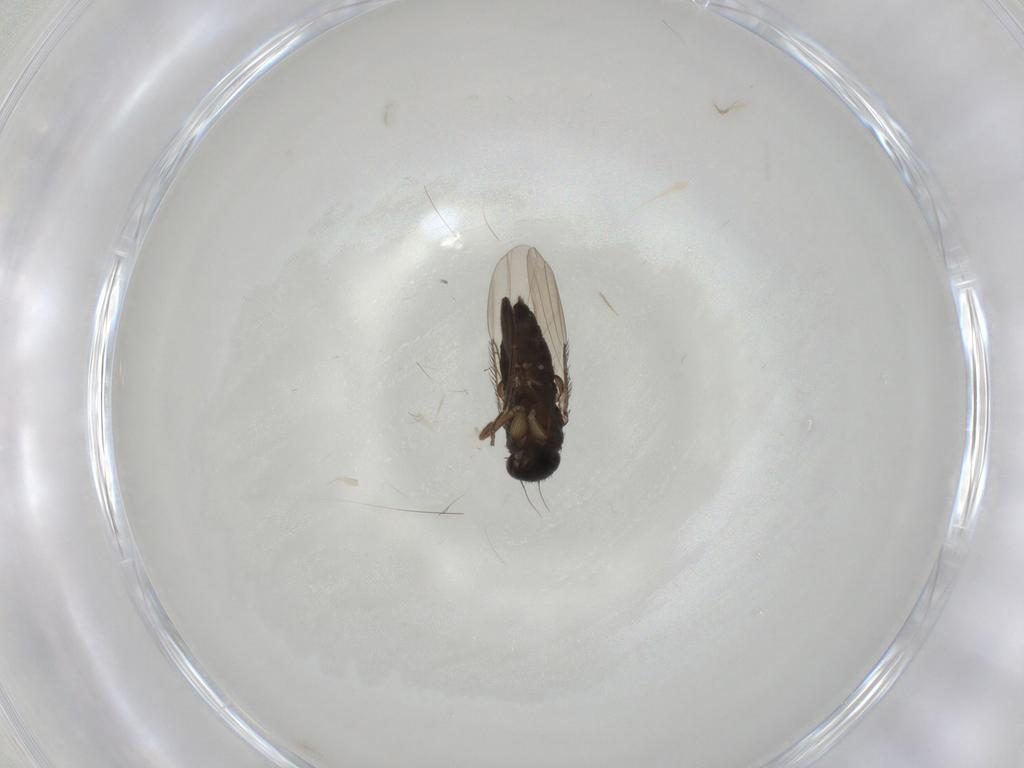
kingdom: Animalia
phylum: Arthropoda
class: Insecta
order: Diptera
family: Phoridae
